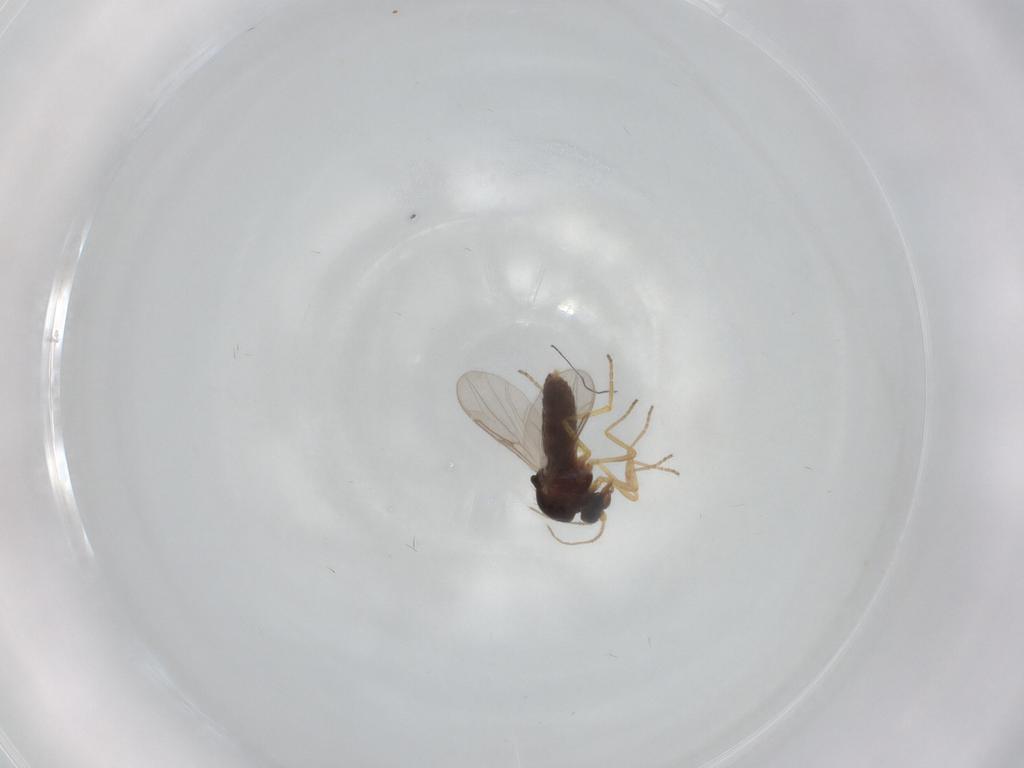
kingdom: Animalia
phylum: Arthropoda
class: Insecta
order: Diptera
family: Ceratopogonidae
